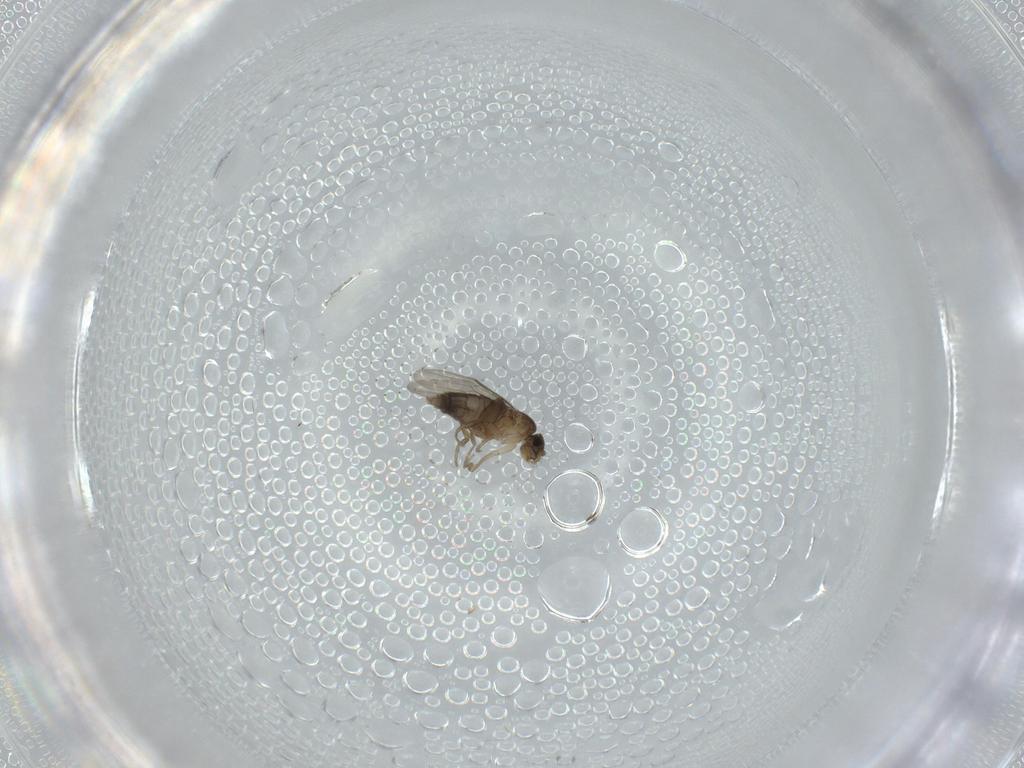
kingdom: Animalia
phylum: Arthropoda
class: Insecta
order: Diptera
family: Phoridae
